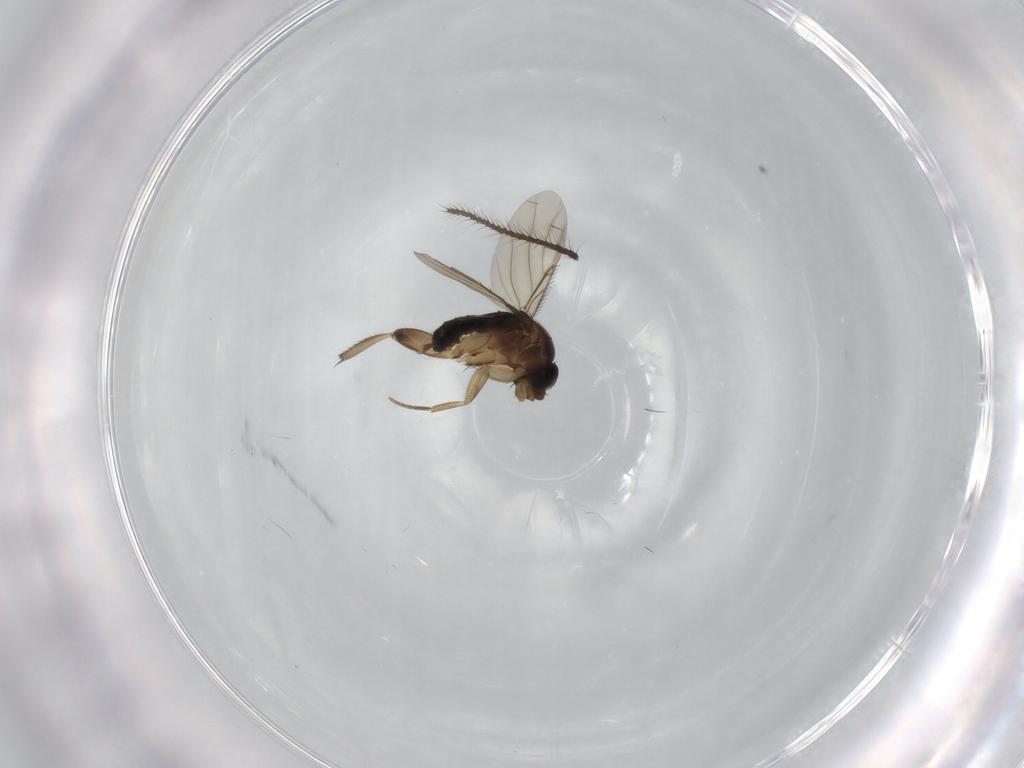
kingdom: Animalia
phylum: Arthropoda
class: Insecta
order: Diptera
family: Phoridae
